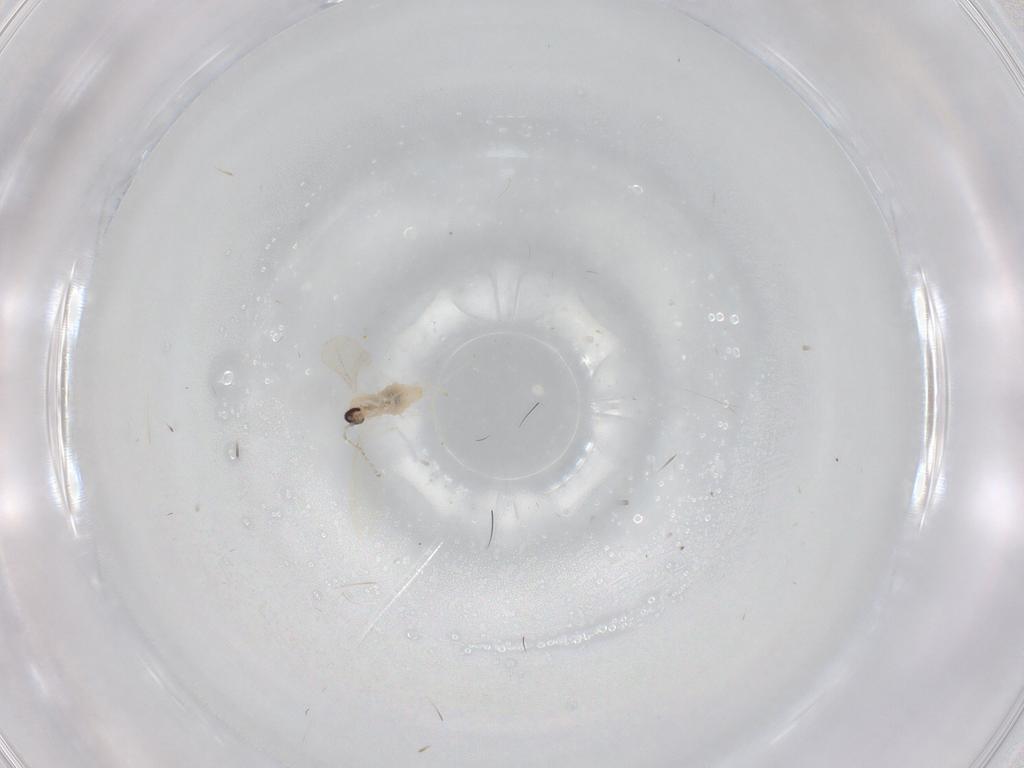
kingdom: Animalia
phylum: Arthropoda
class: Insecta
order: Diptera
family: Cecidomyiidae
